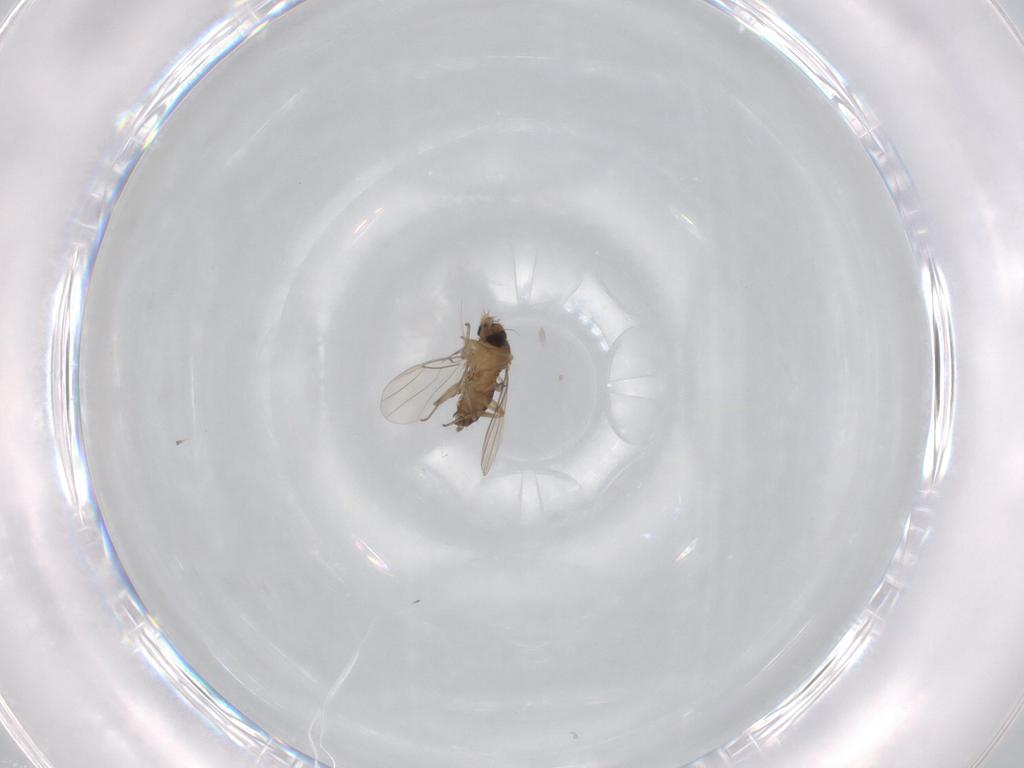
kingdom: Animalia
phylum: Arthropoda
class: Insecta
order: Diptera
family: Phoridae
